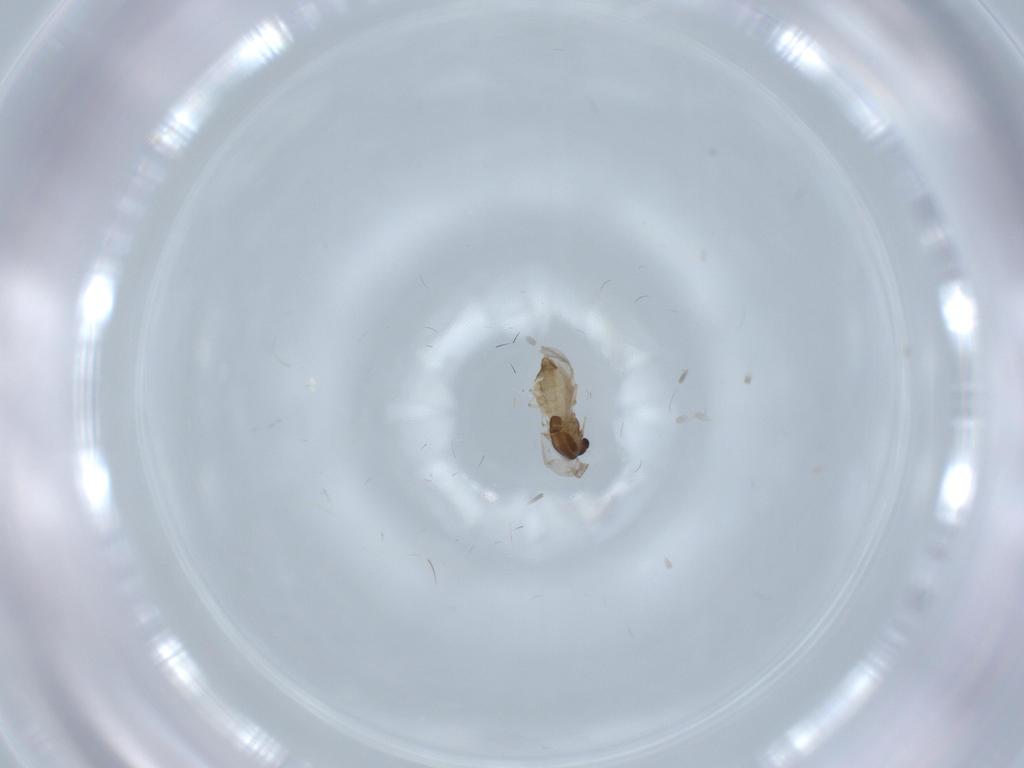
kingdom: Animalia
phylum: Arthropoda
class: Insecta
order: Diptera
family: Chironomidae
